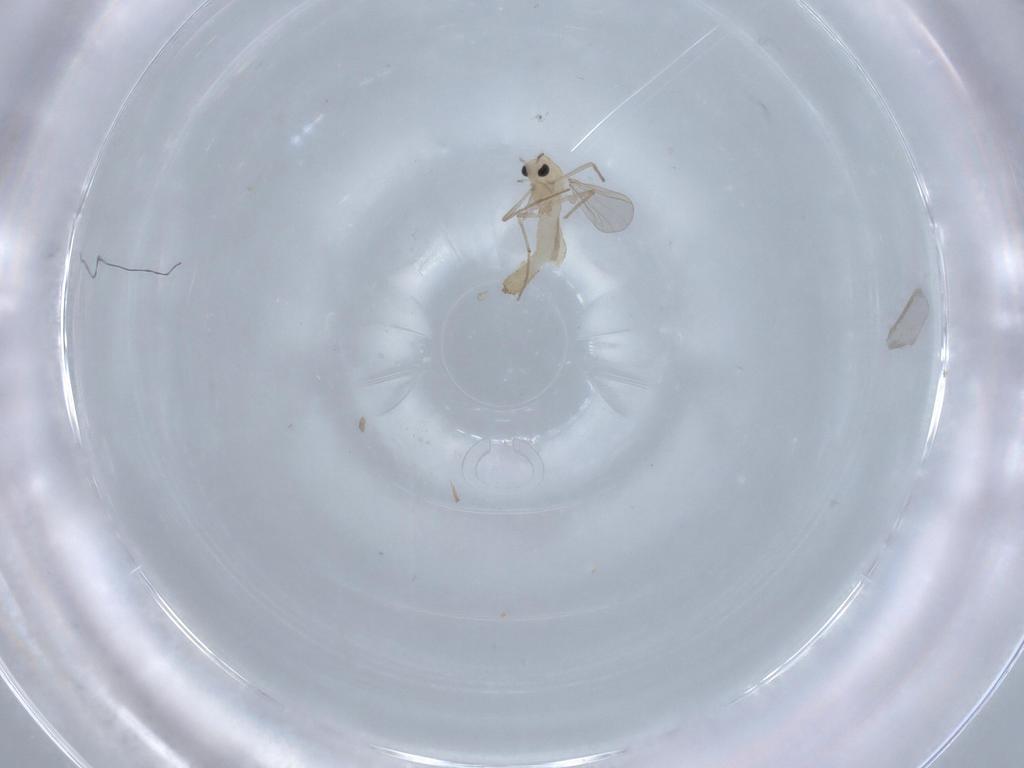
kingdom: Animalia
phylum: Arthropoda
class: Insecta
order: Diptera
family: Chironomidae
